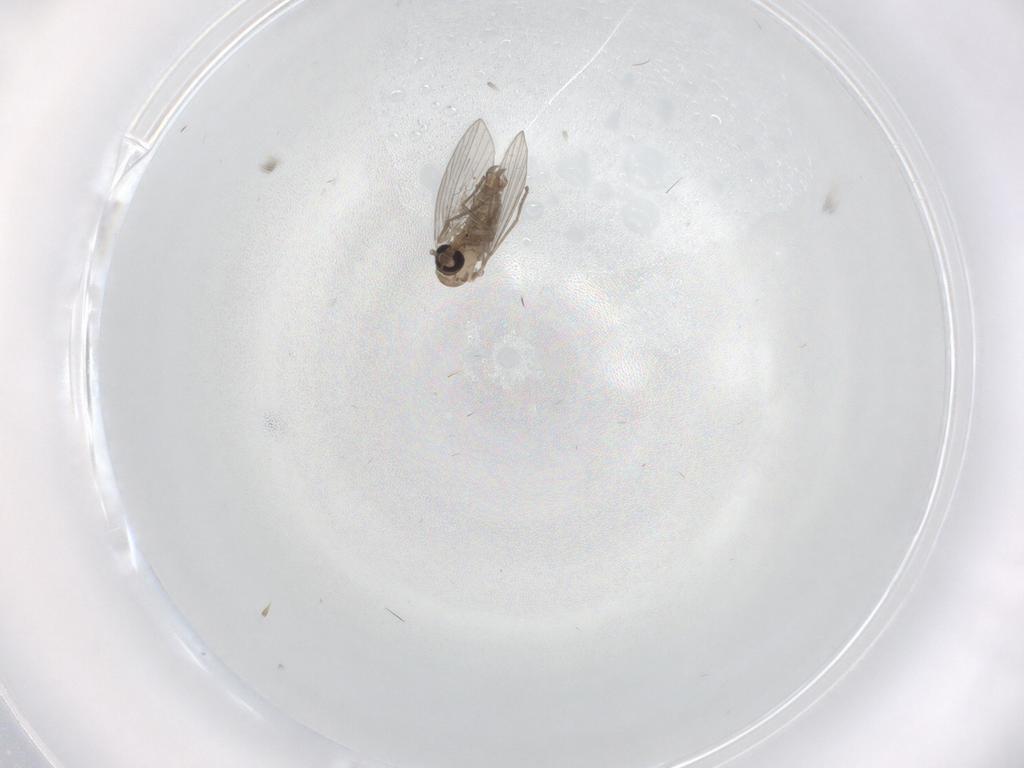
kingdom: Animalia
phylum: Arthropoda
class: Insecta
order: Diptera
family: Psychodidae
